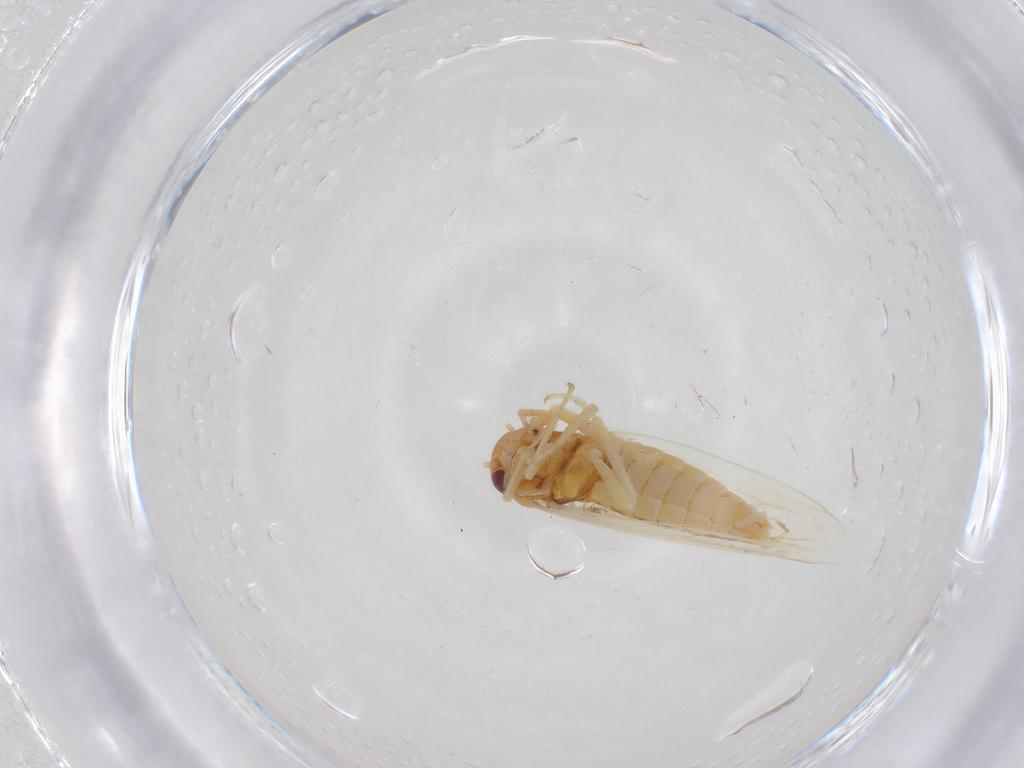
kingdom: Animalia
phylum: Arthropoda
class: Insecta
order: Hemiptera
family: Cicadellidae
